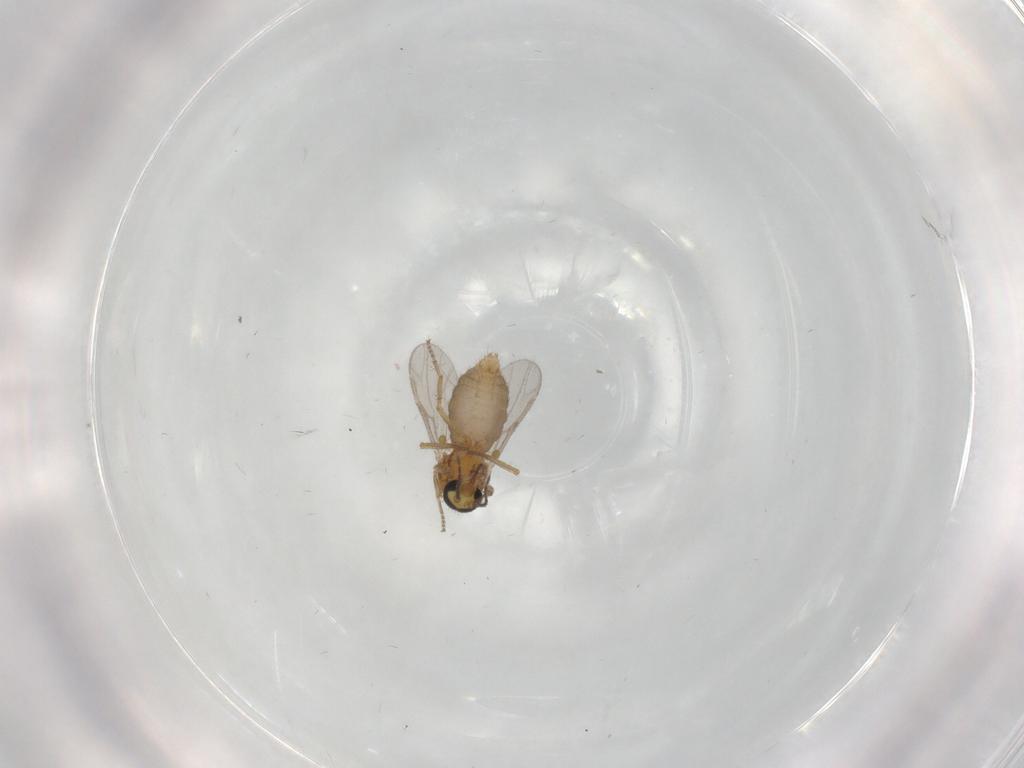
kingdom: Animalia
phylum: Arthropoda
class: Insecta
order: Diptera
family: Ceratopogonidae
